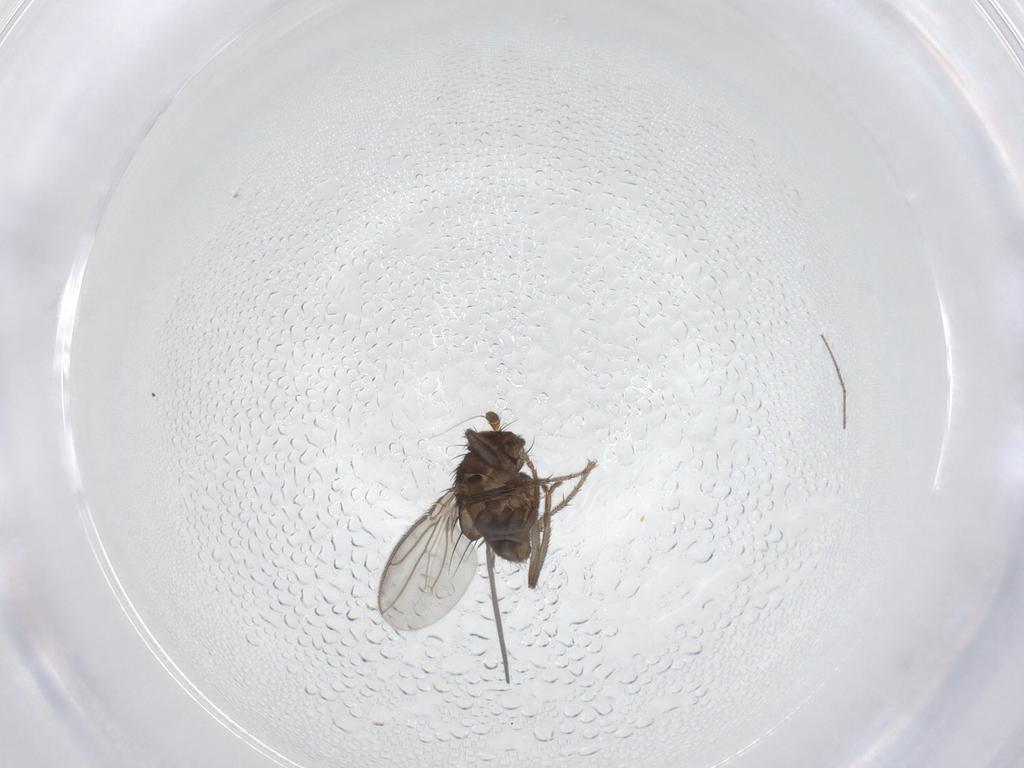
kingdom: Animalia
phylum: Arthropoda
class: Insecta
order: Diptera
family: Sphaeroceridae
